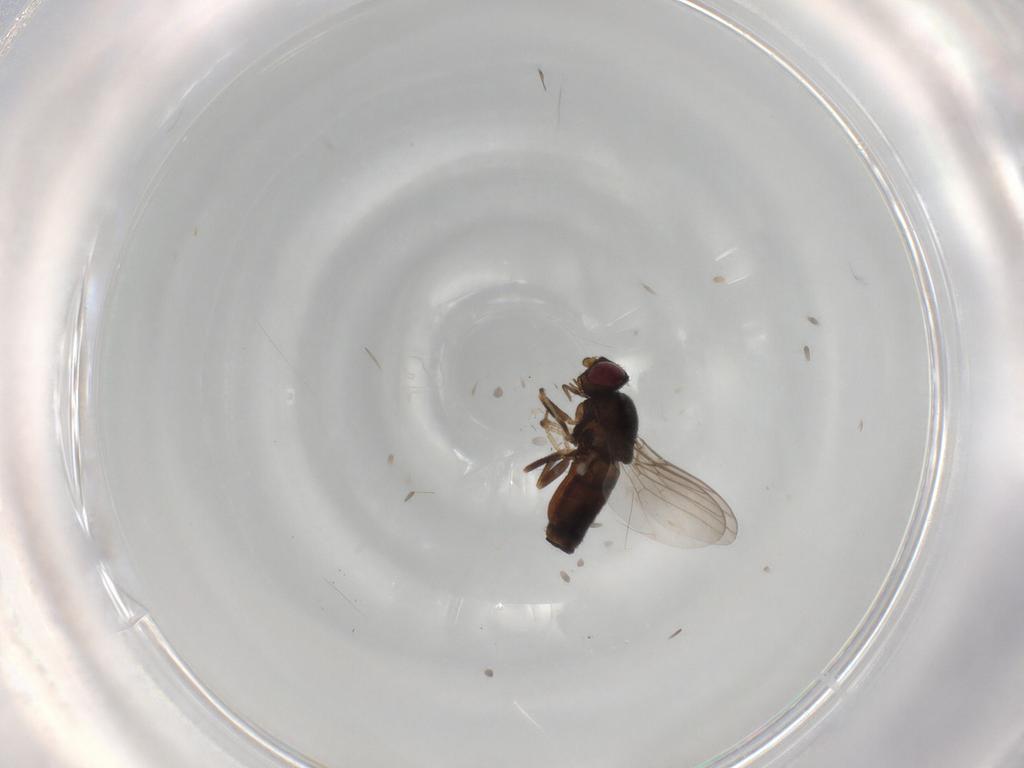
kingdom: Animalia
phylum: Arthropoda
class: Insecta
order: Diptera
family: Chloropidae
